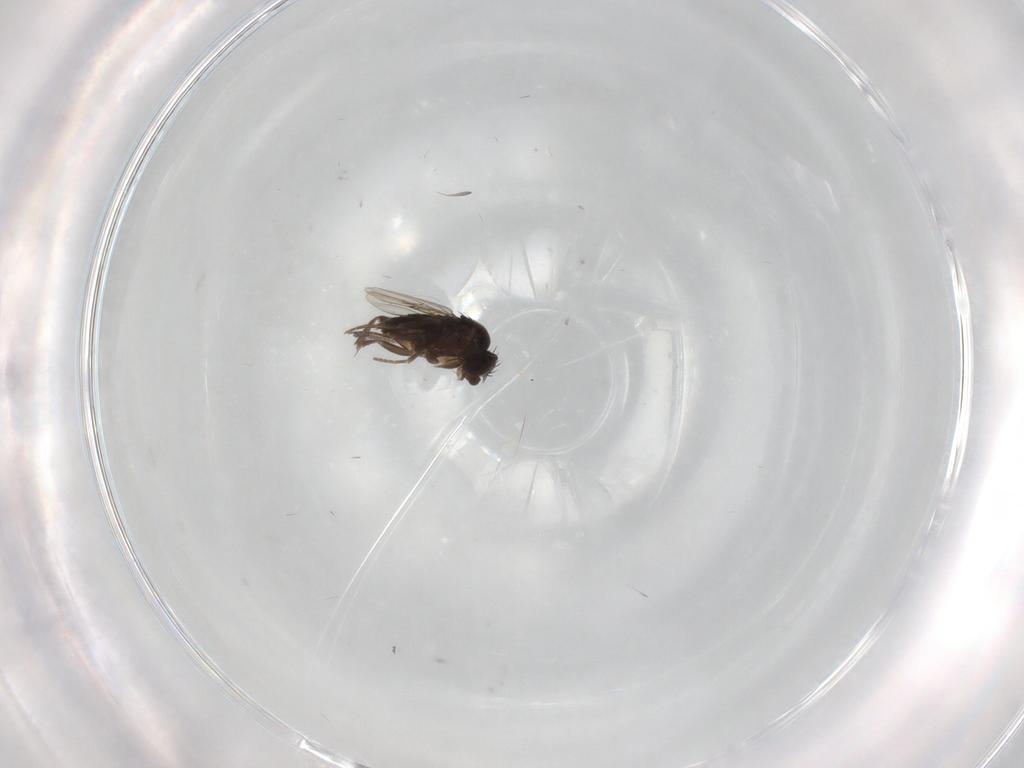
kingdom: Animalia
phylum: Arthropoda
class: Insecta
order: Diptera
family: Phoridae
